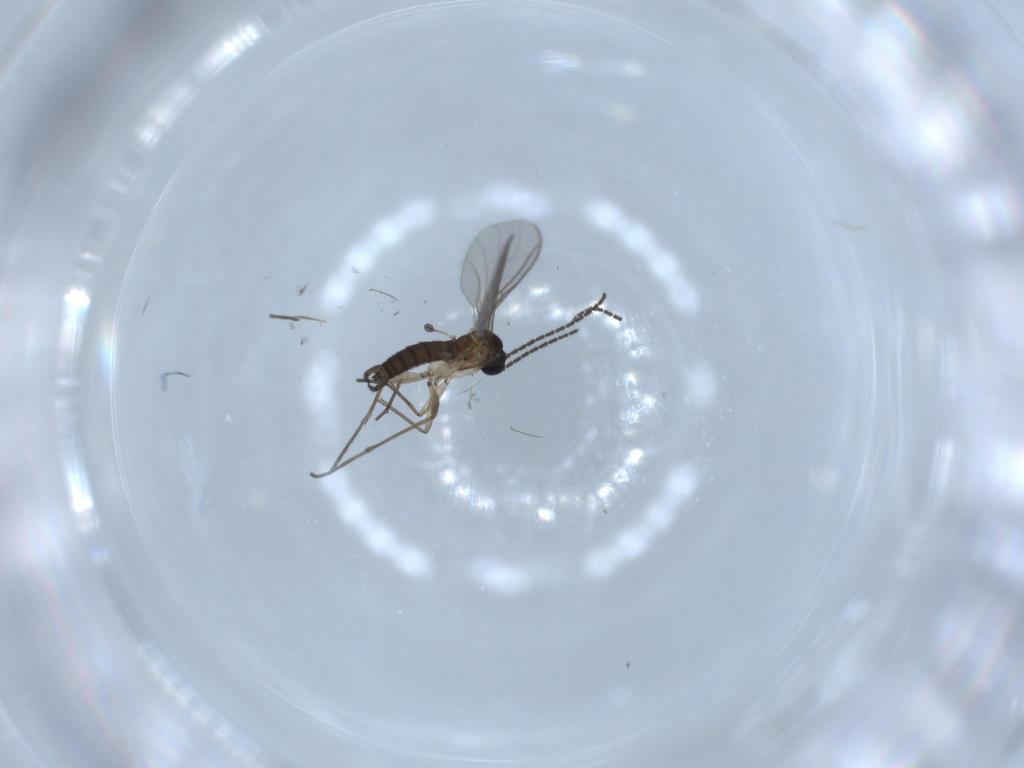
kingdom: Animalia
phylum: Arthropoda
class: Insecta
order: Diptera
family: Sciaridae
